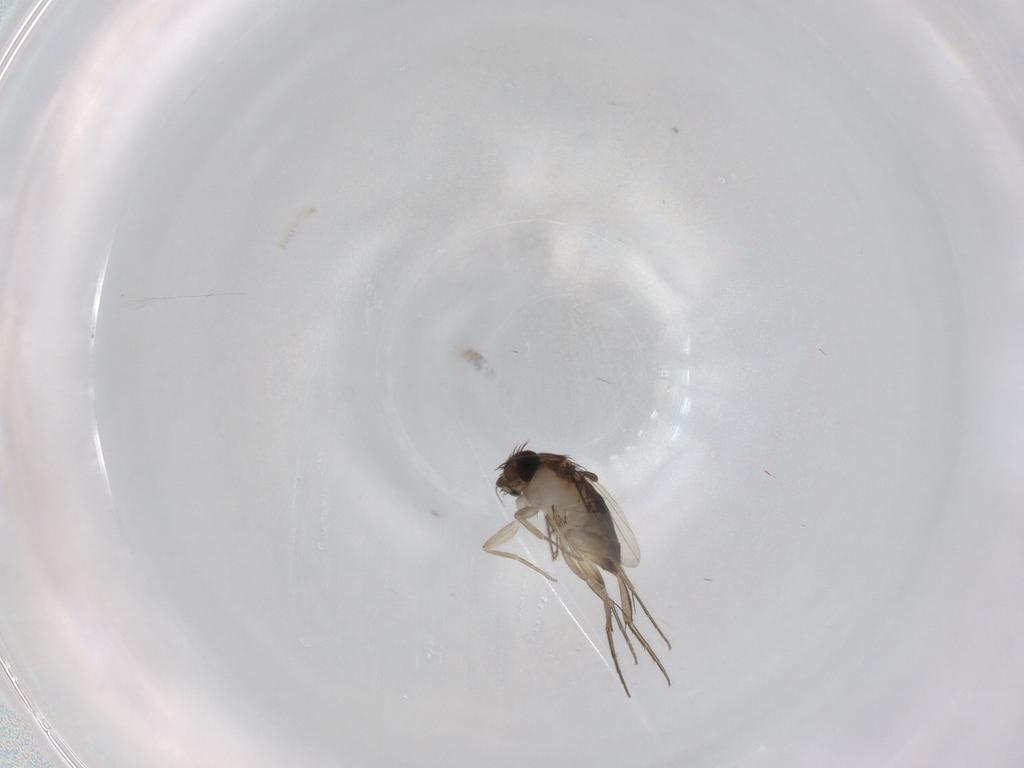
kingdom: Animalia
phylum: Arthropoda
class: Insecta
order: Diptera
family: Phoridae
